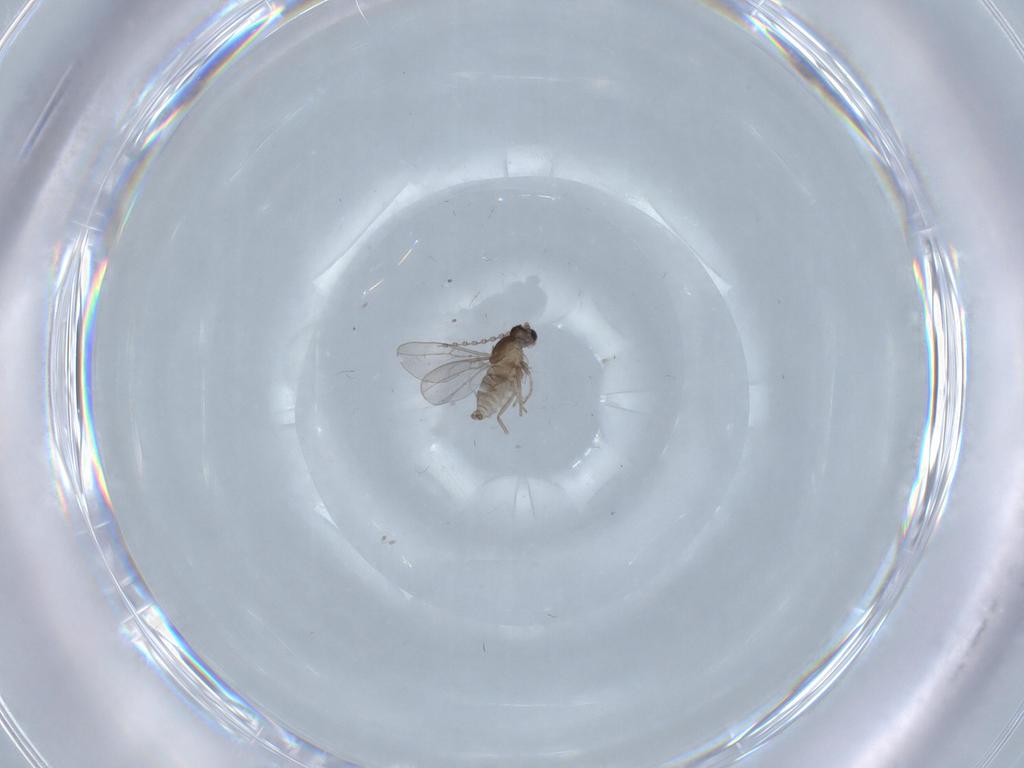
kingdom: Animalia
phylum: Arthropoda
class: Insecta
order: Diptera
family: Cecidomyiidae
